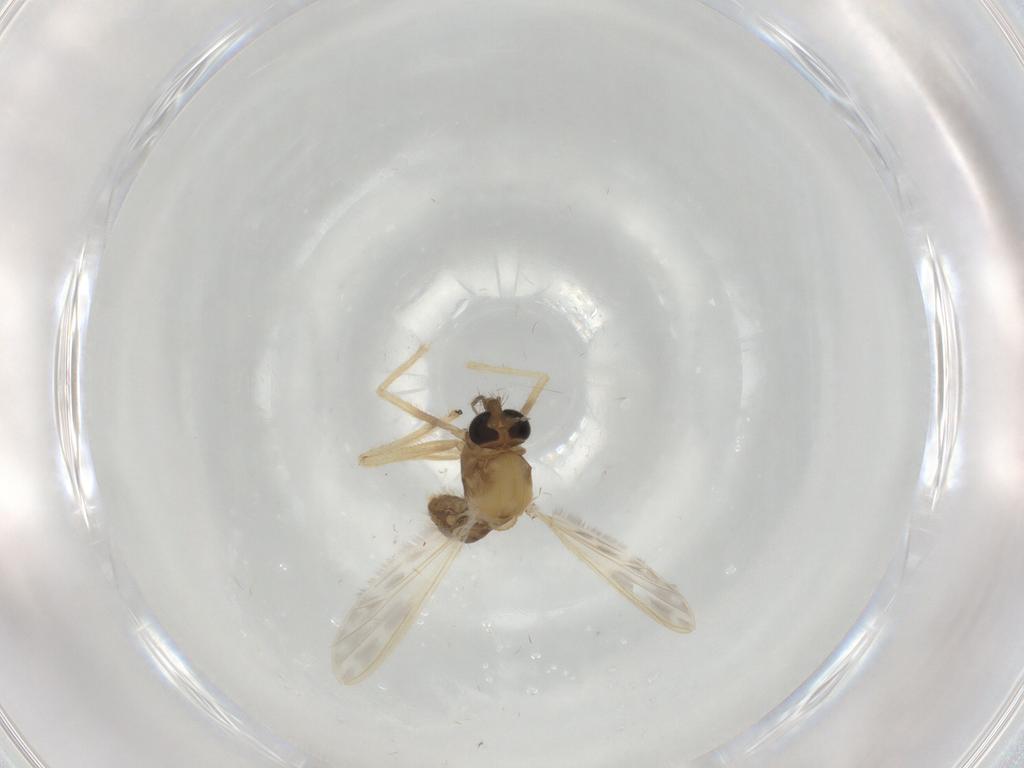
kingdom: Animalia
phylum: Arthropoda
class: Insecta
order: Diptera
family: Chironomidae
